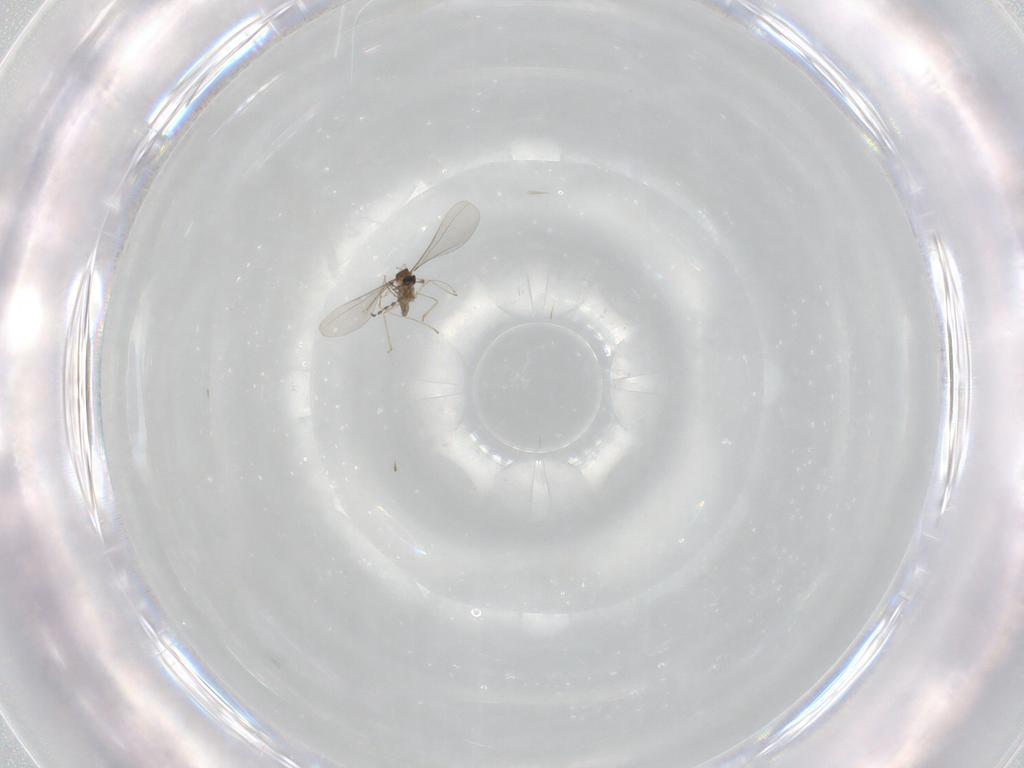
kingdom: Animalia
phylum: Arthropoda
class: Insecta
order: Diptera
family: Cecidomyiidae
